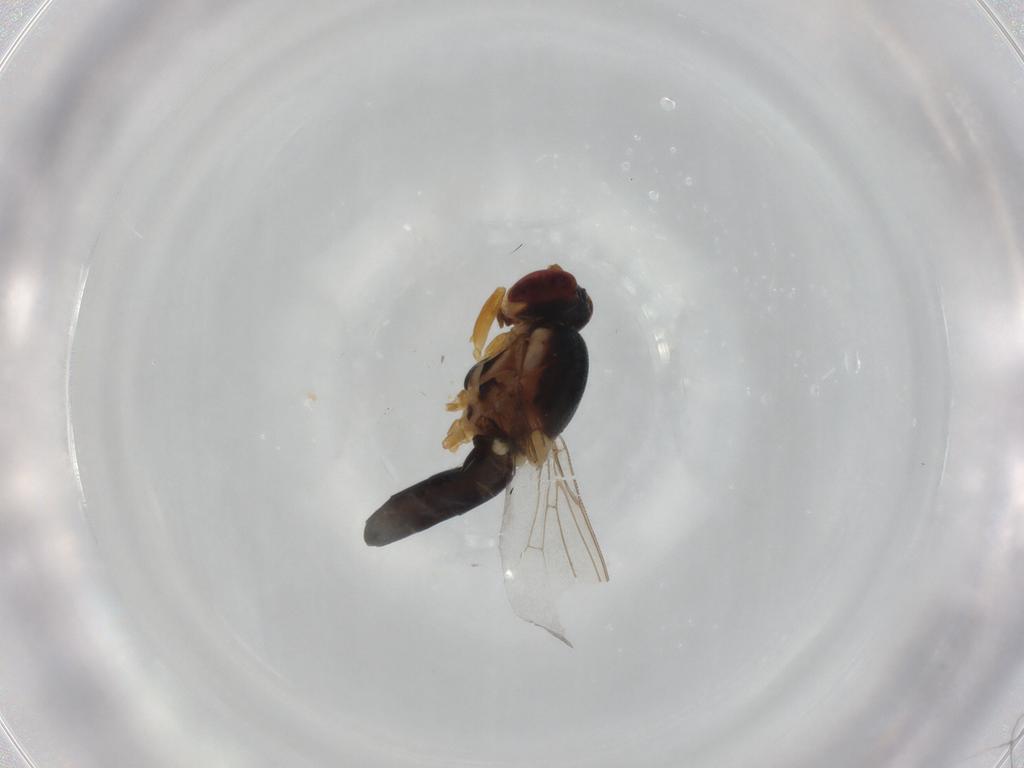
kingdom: Animalia
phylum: Arthropoda
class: Insecta
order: Diptera
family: Chloropidae
